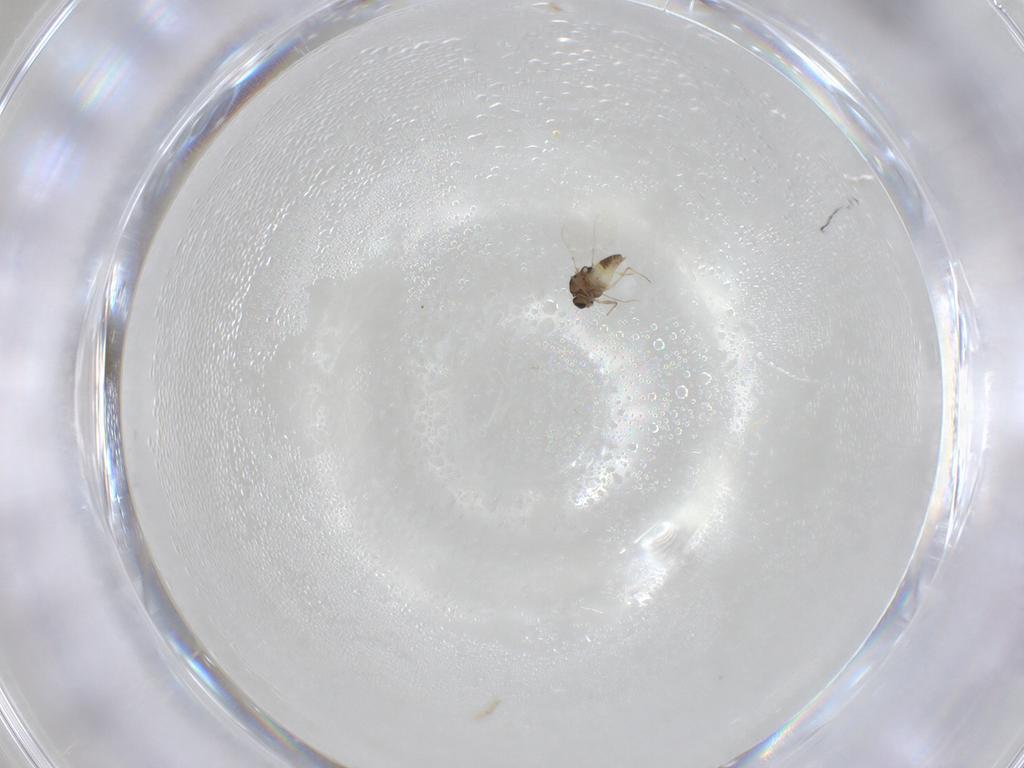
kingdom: Animalia
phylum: Arthropoda
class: Insecta
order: Diptera
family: Chironomidae
